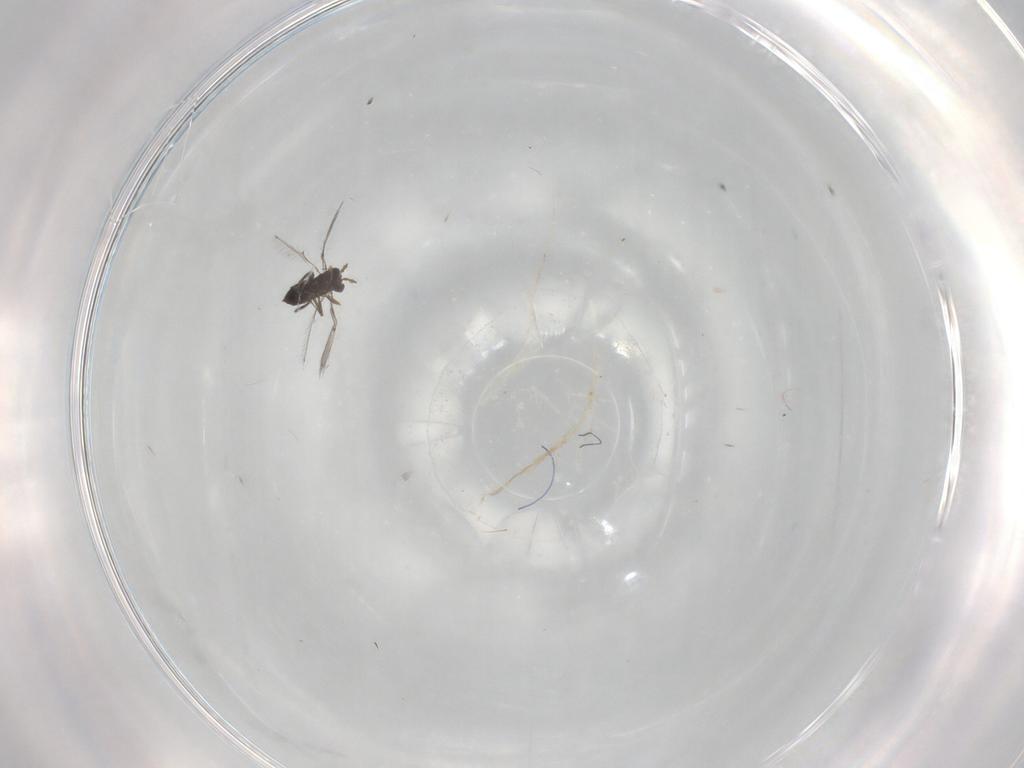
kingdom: Animalia
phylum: Arthropoda
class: Insecta
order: Hymenoptera
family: Trichogrammatidae
